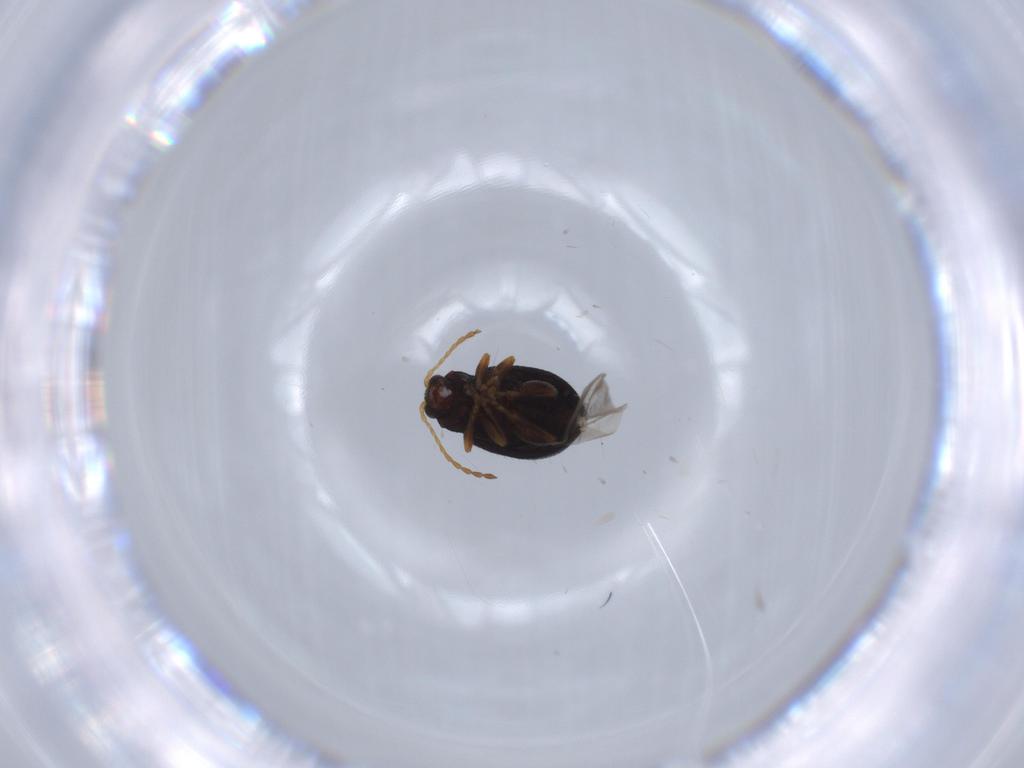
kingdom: Animalia
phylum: Arthropoda
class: Insecta
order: Coleoptera
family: Chrysomelidae
